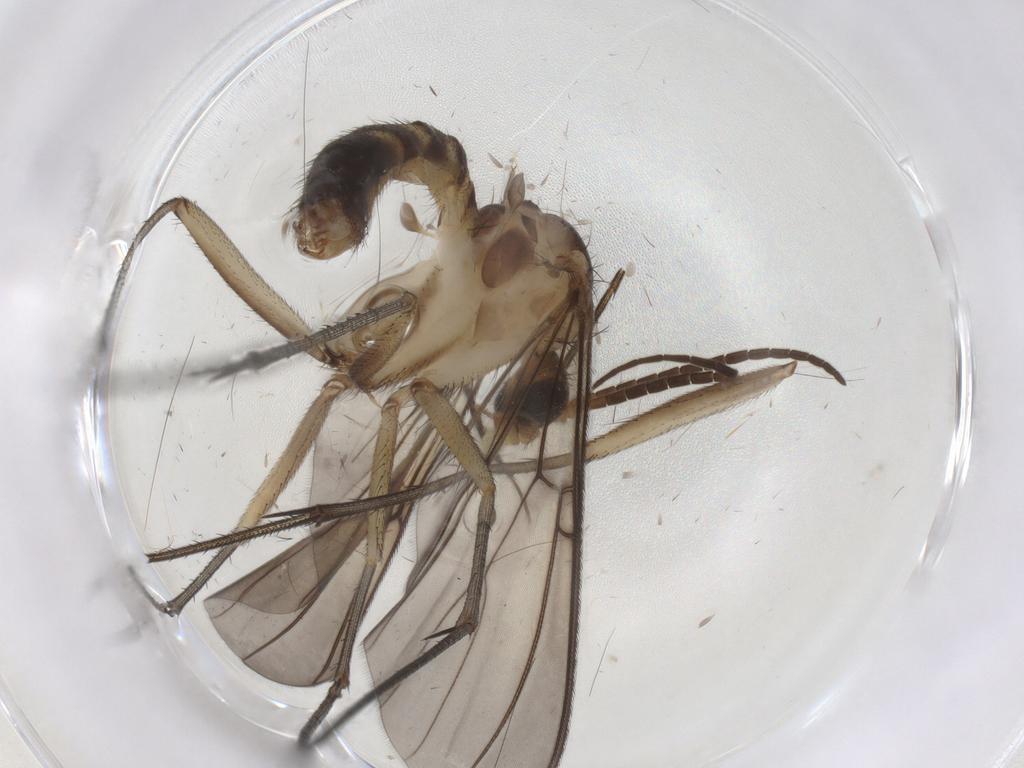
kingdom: Animalia
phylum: Arthropoda
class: Insecta
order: Diptera
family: Mycetophilidae
